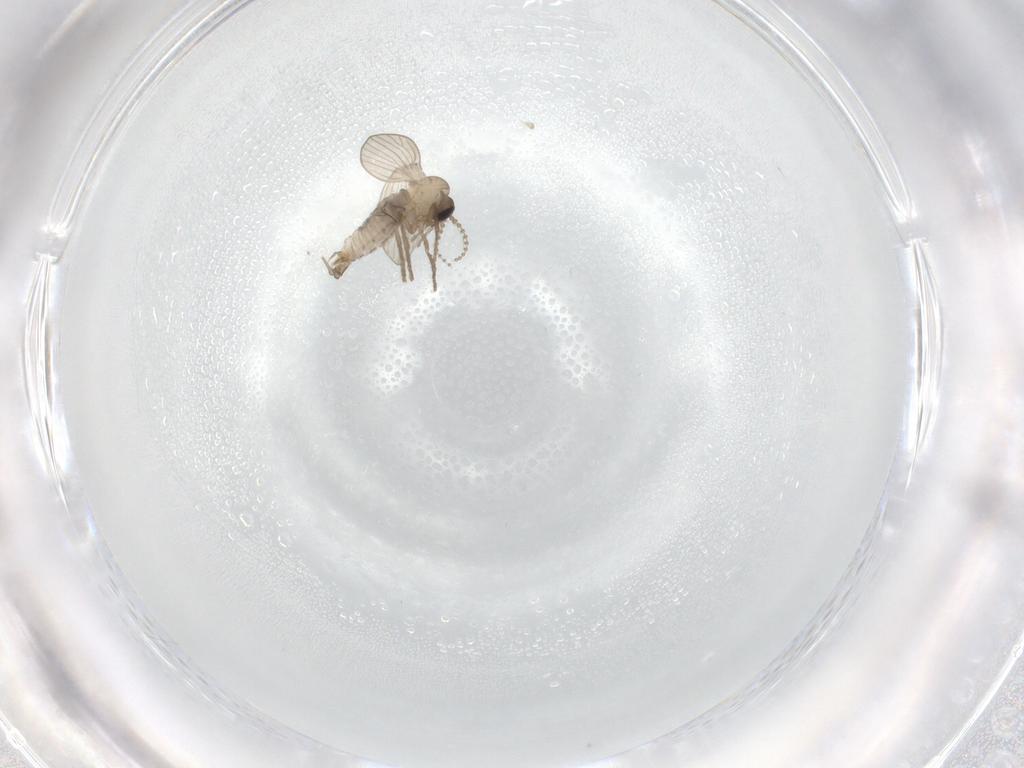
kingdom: Animalia
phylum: Arthropoda
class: Insecta
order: Diptera
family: Psychodidae
